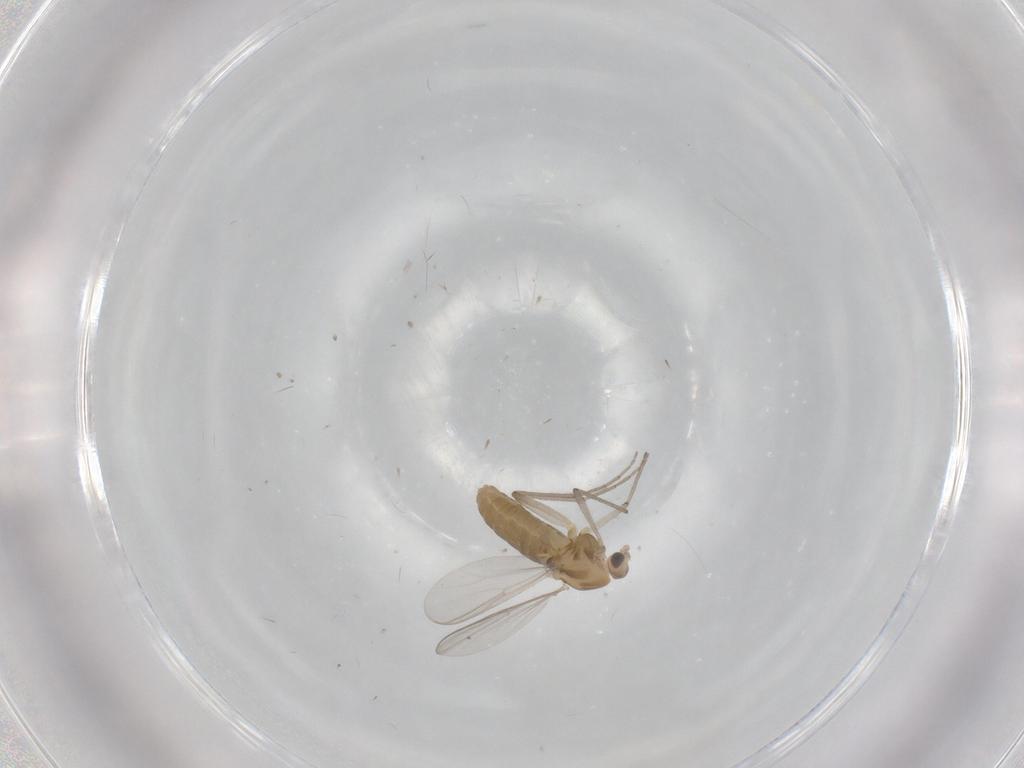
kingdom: Animalia
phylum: Arthropoda
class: Insecta
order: Diptera
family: Chironomidae
